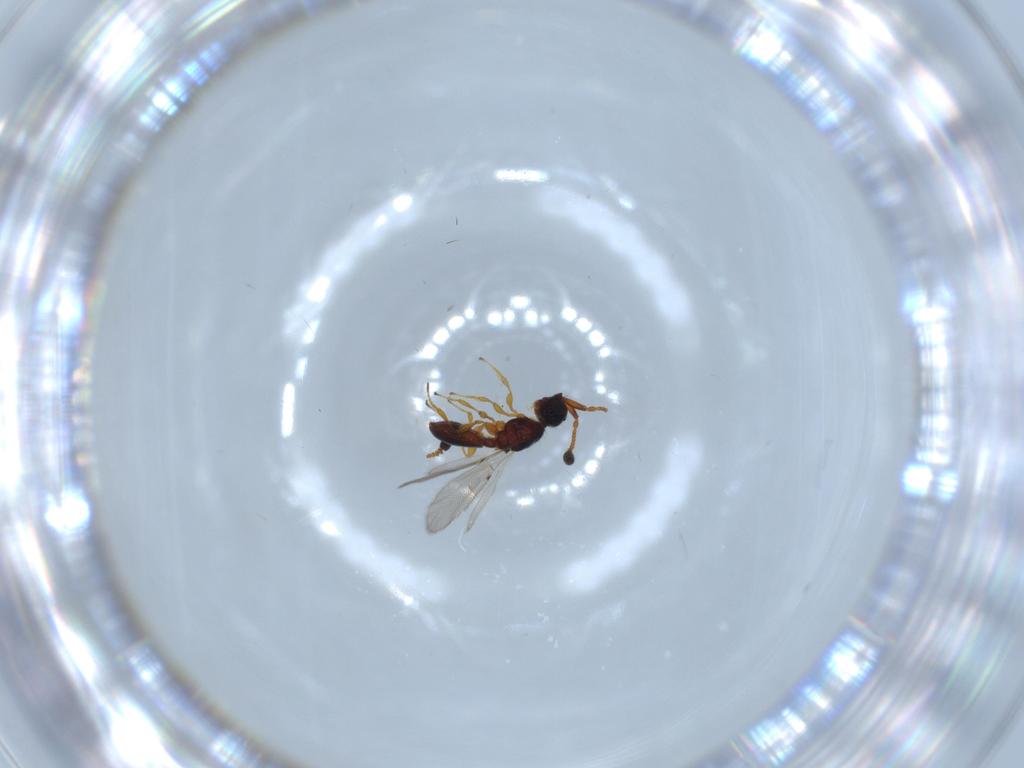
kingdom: Animalia
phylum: Arthropoda
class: Insecta
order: Hymenoptera
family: Diapriidae
